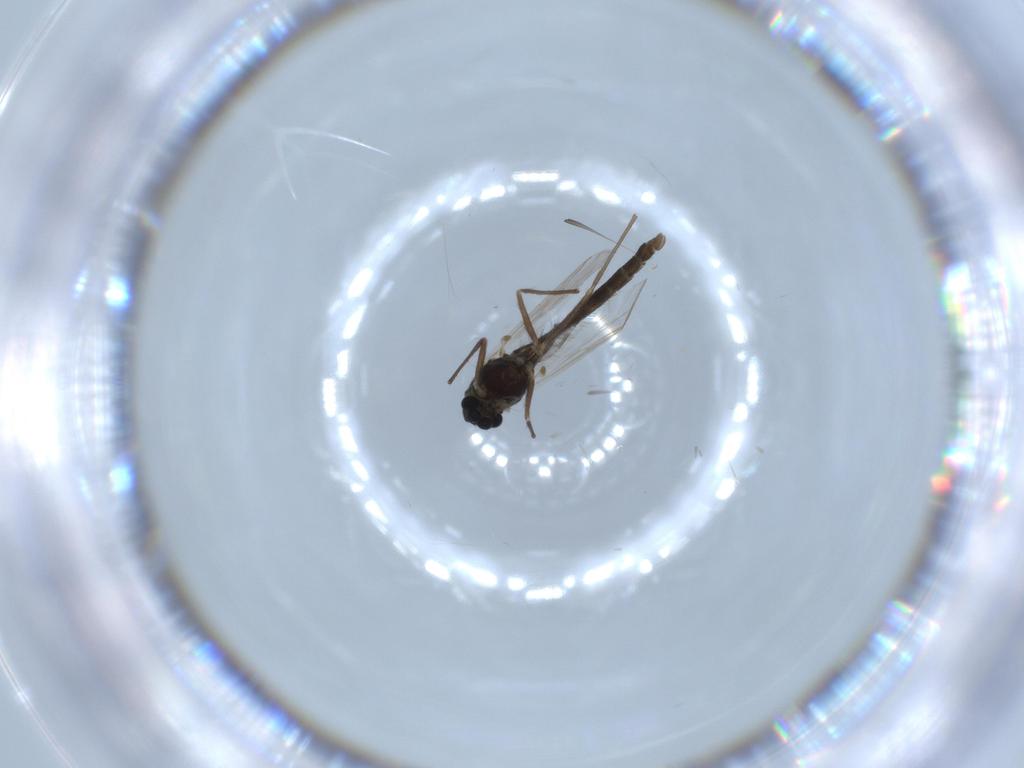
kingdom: Animalia
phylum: Arthropoda
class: Insecta
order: Diptera
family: Chironomidae
